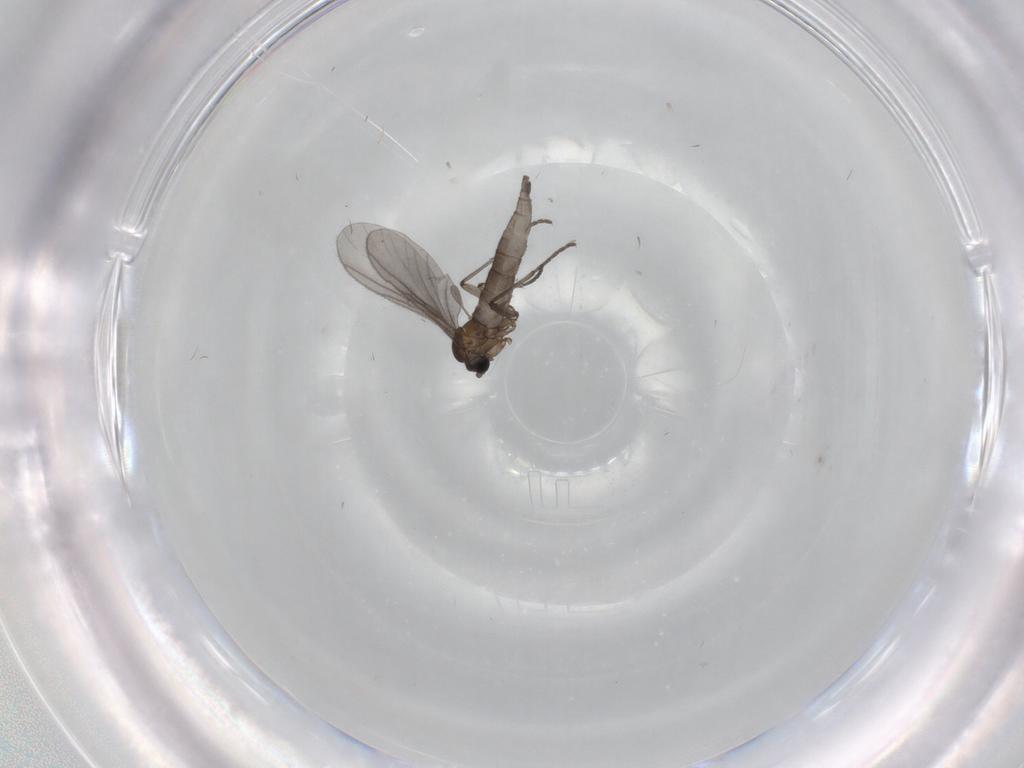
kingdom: Animalia
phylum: Arthropoda
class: Insecta
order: Diptera
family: Sciaridae
